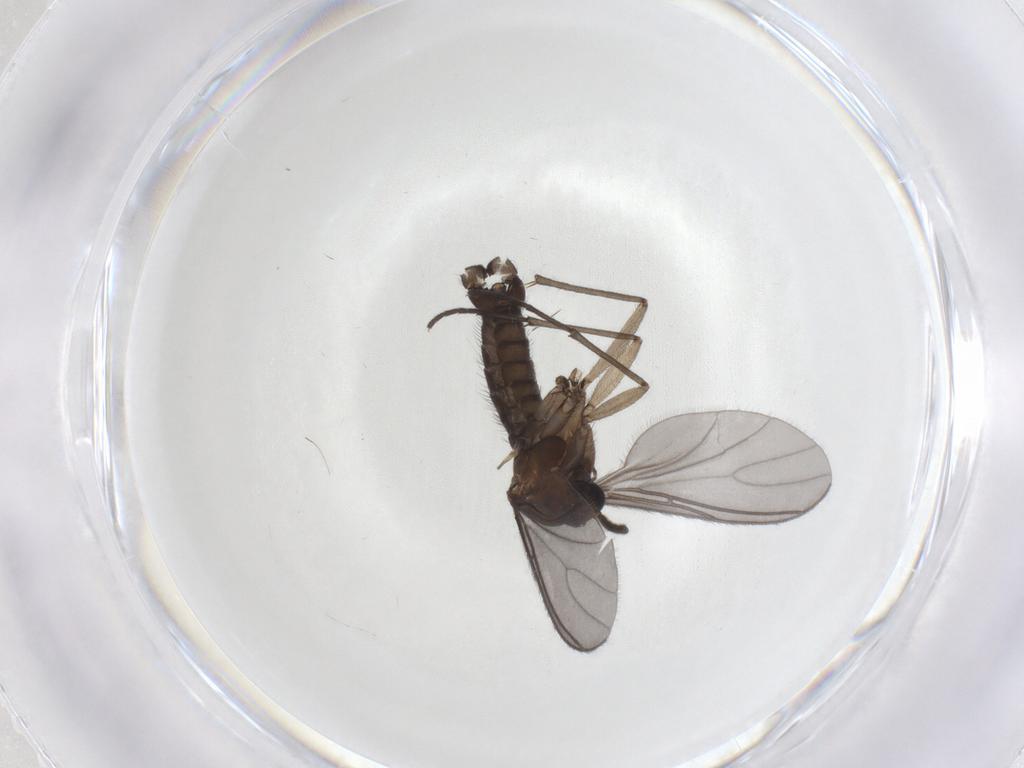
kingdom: Animalia
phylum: Arthropoda
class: Insecta
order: Diptera
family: Sciaridae
